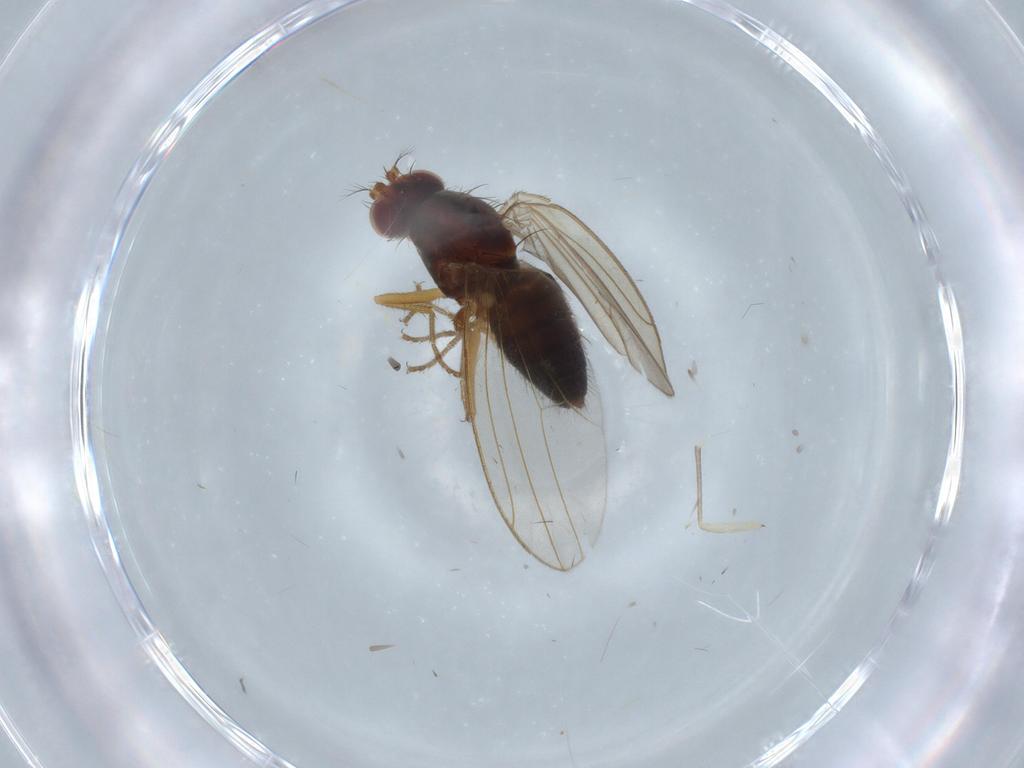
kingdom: Animalia
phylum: Arthropoda
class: Insecta
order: Diptera
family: Drosophilidae
